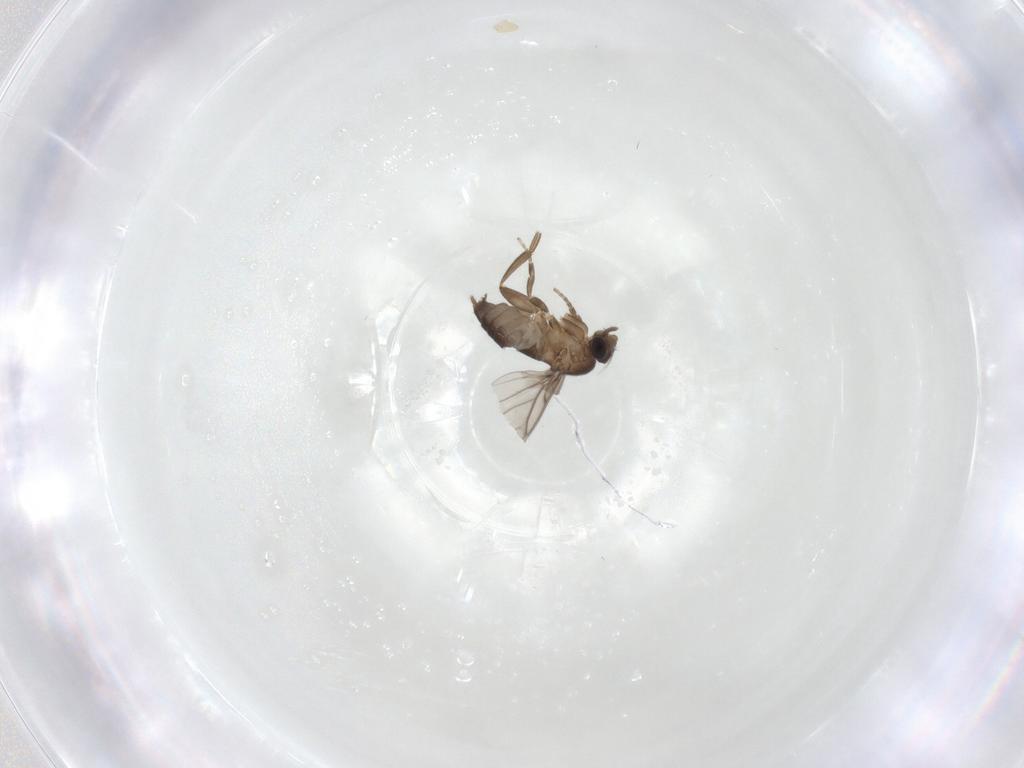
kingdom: Animalia
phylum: Arthropoda
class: Insecta
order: Diptera
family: Phoridae
